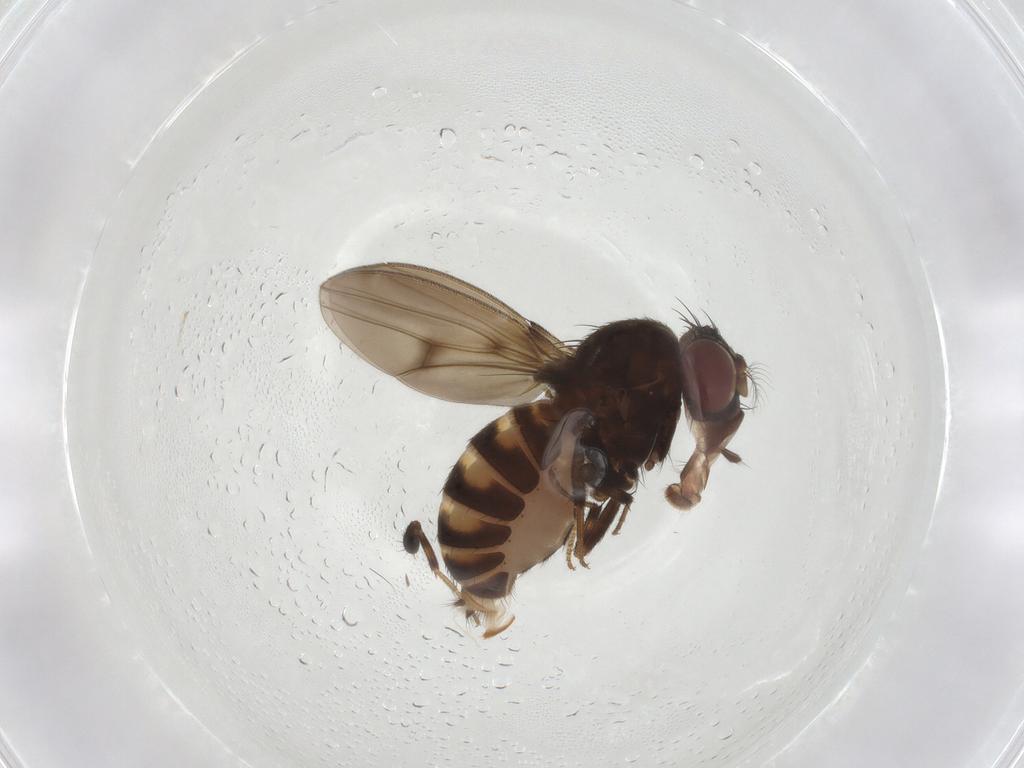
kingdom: Animalia
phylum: Arthropoda
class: Insecta
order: Diptera
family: Drosophilidae
